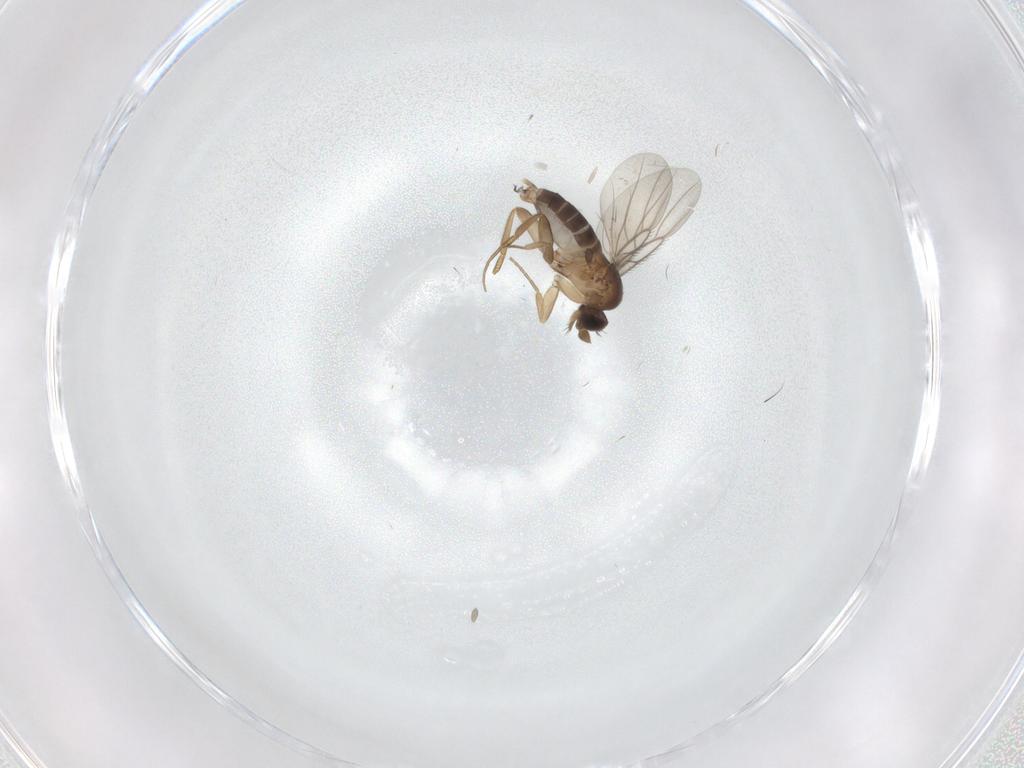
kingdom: Animalia
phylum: Arthropoda
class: Insecta
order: Diptera
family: Phoridae
